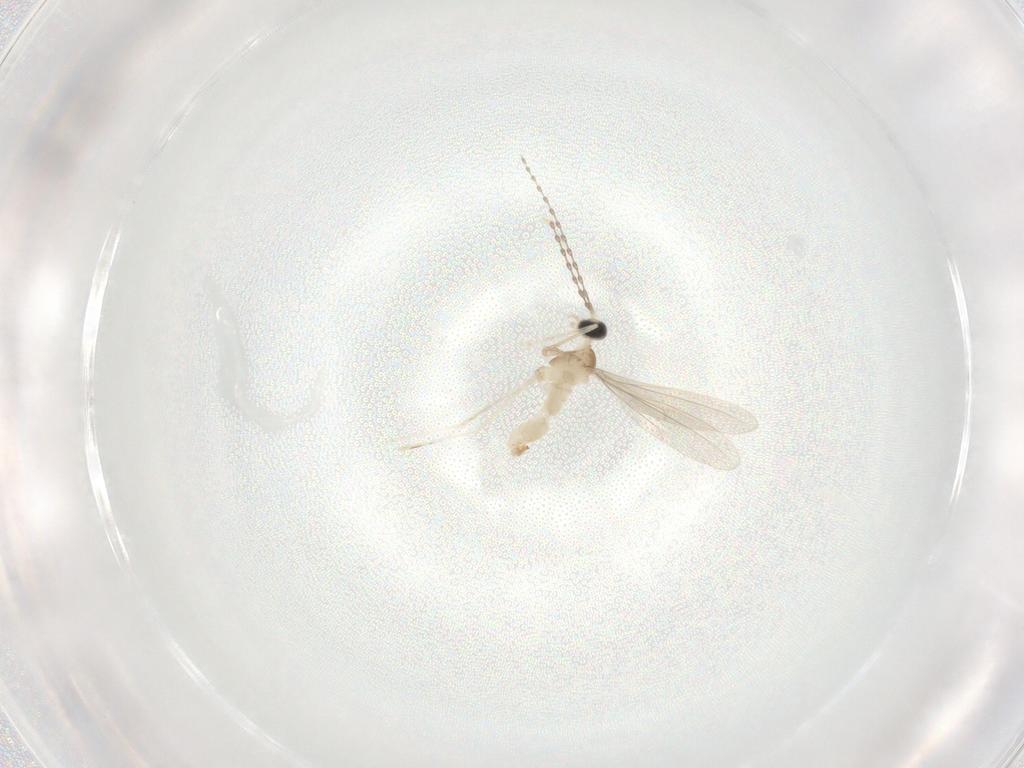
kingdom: Animalia
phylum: Arthropoda
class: Insecta
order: Diptera
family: Cecidomyiidae
